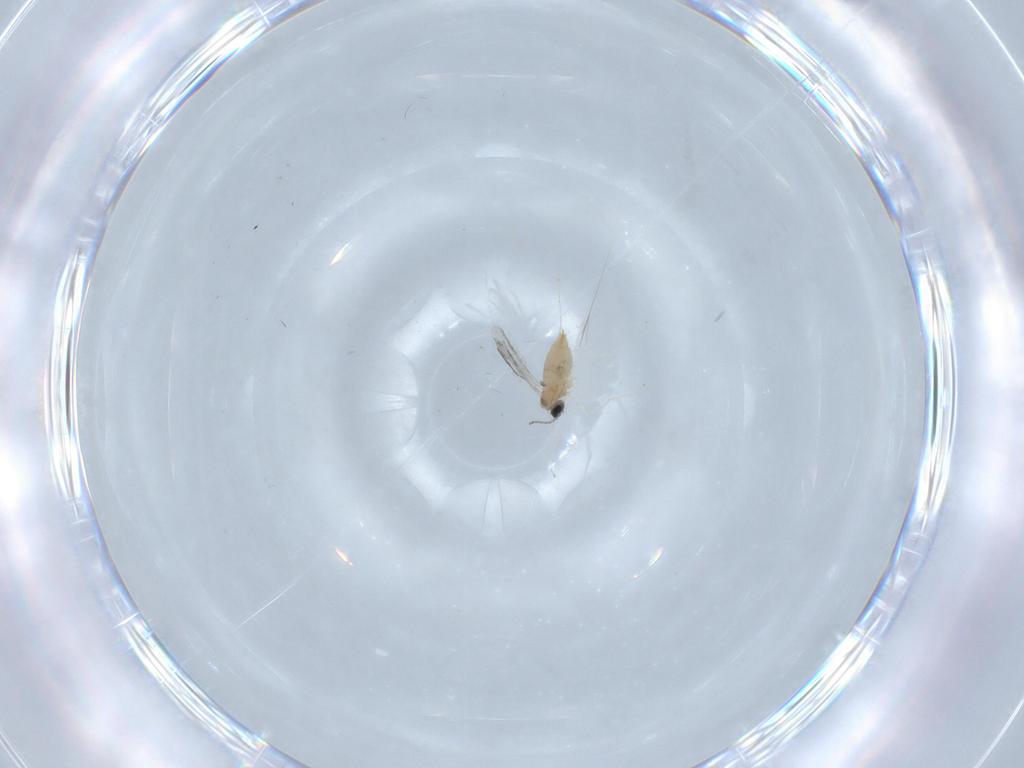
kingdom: Animalia
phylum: Arthropoda
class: Insecta
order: Diptera
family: Cecidomyiidae
